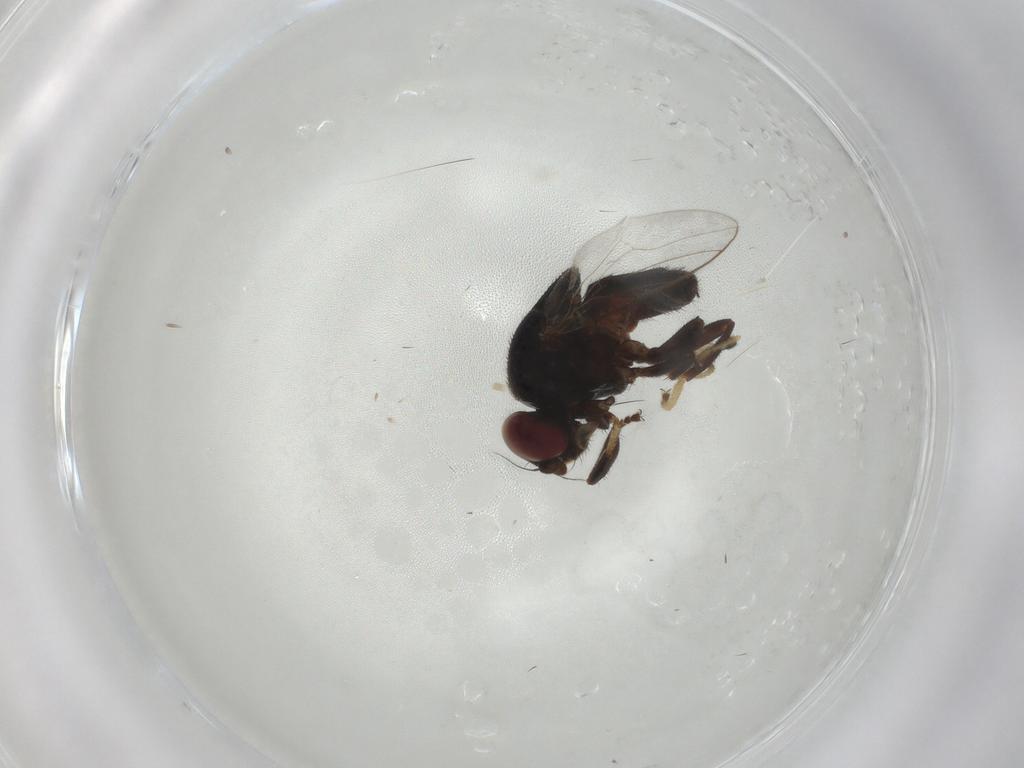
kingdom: Animalia
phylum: Arthropoda
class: Insecta
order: Diptera
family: Chloropidae
